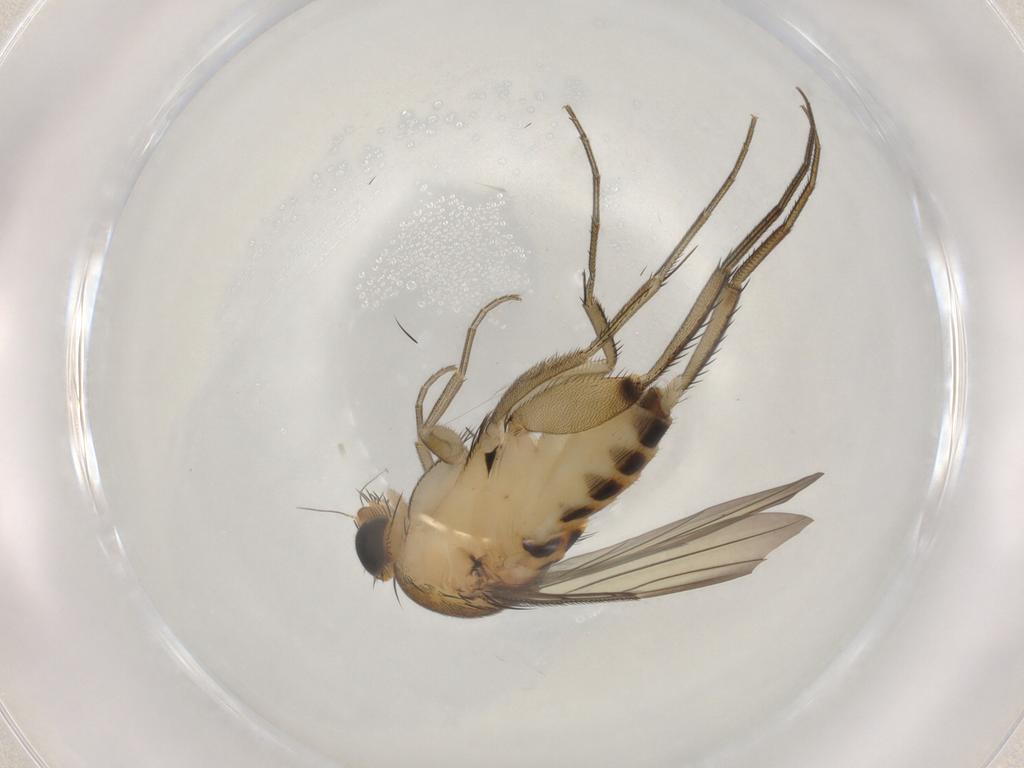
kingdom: Animalia
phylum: Arthropoda
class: Insecta
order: Diptera
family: Phoridae
